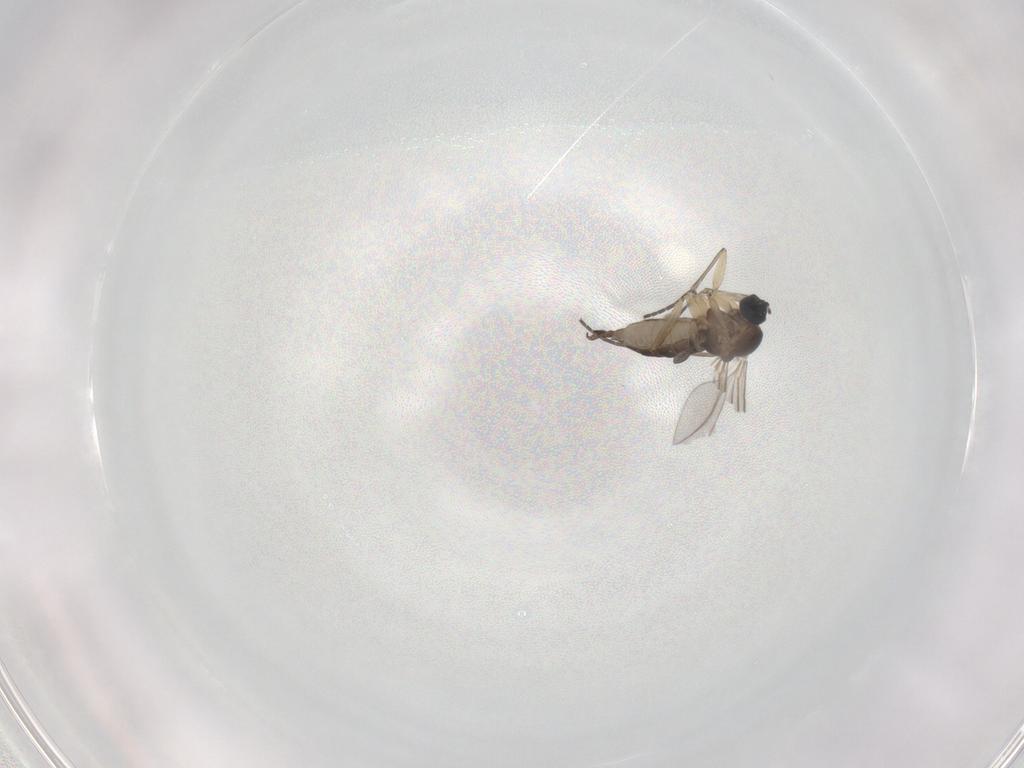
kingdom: Animalia
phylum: Arthropoda
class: Insecta
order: Diptera
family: Sciaridae
